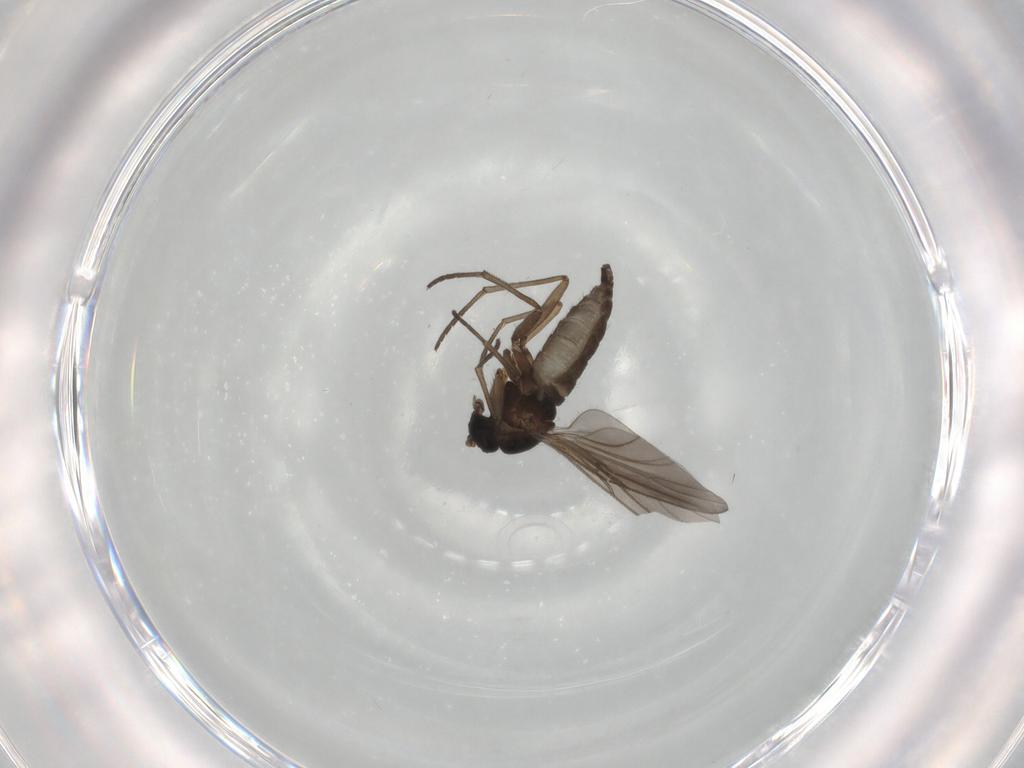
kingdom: Animalia
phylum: Arthropoda
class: Insecta
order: Diptera
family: Sciaridae
